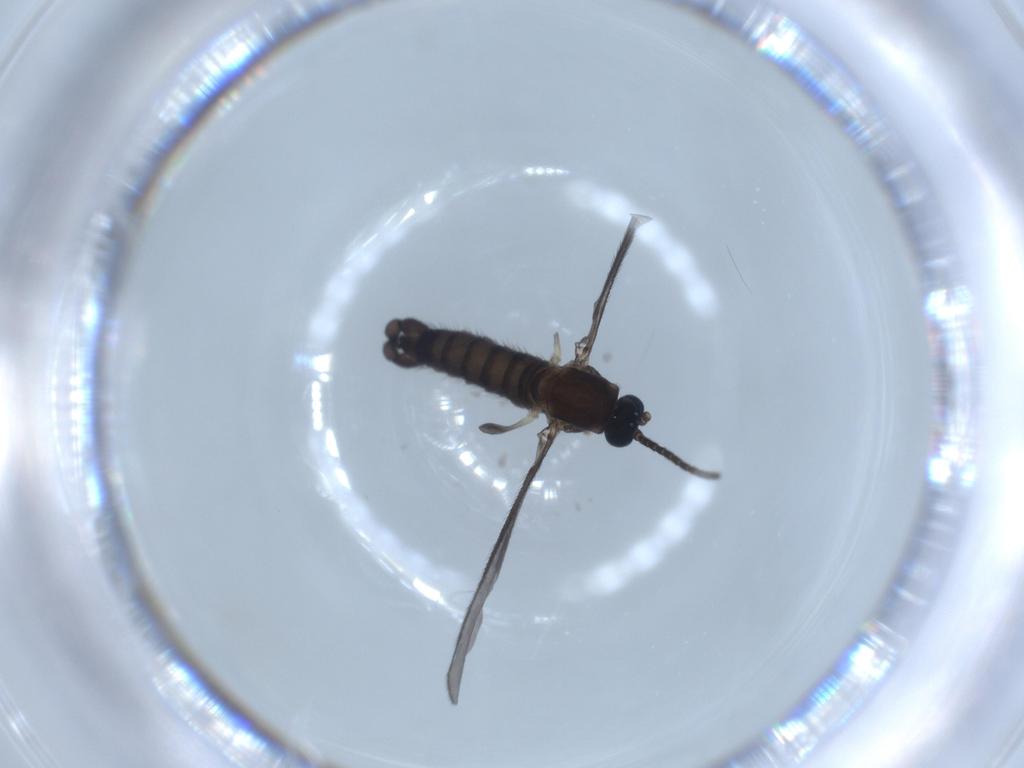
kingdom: Animalia
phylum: Arthropoda
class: Insecta
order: Diptera
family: Sciaridae
